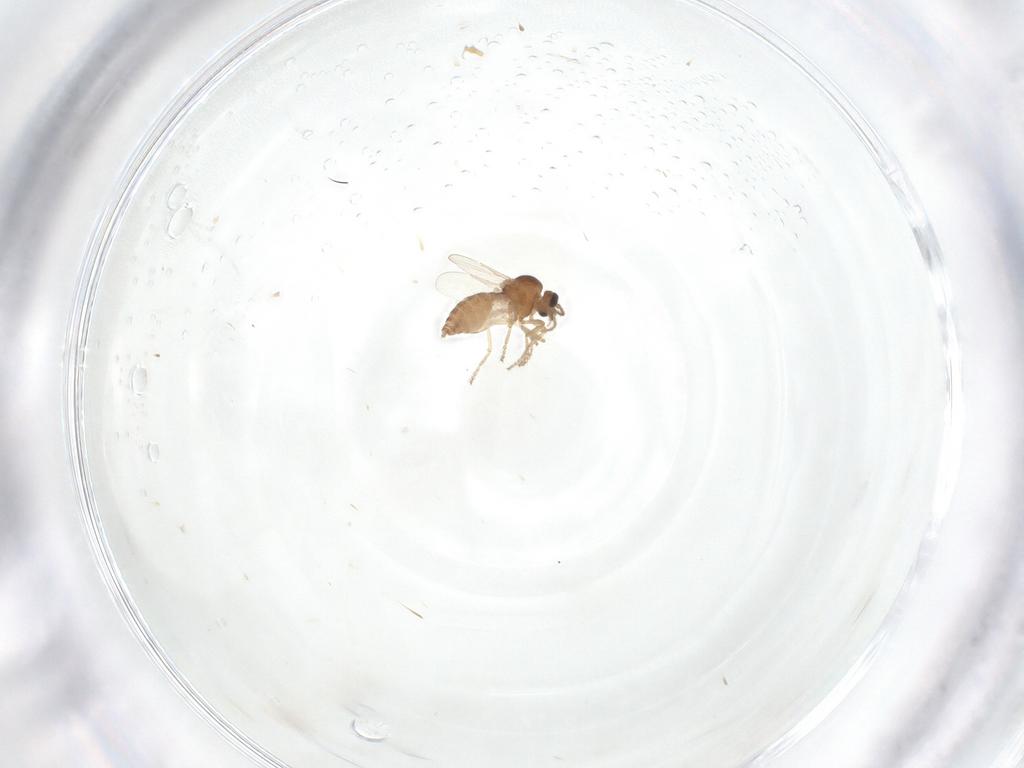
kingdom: Animalia
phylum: Arthropoda
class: Insecta
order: Diptera
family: Ceratopogonidae
